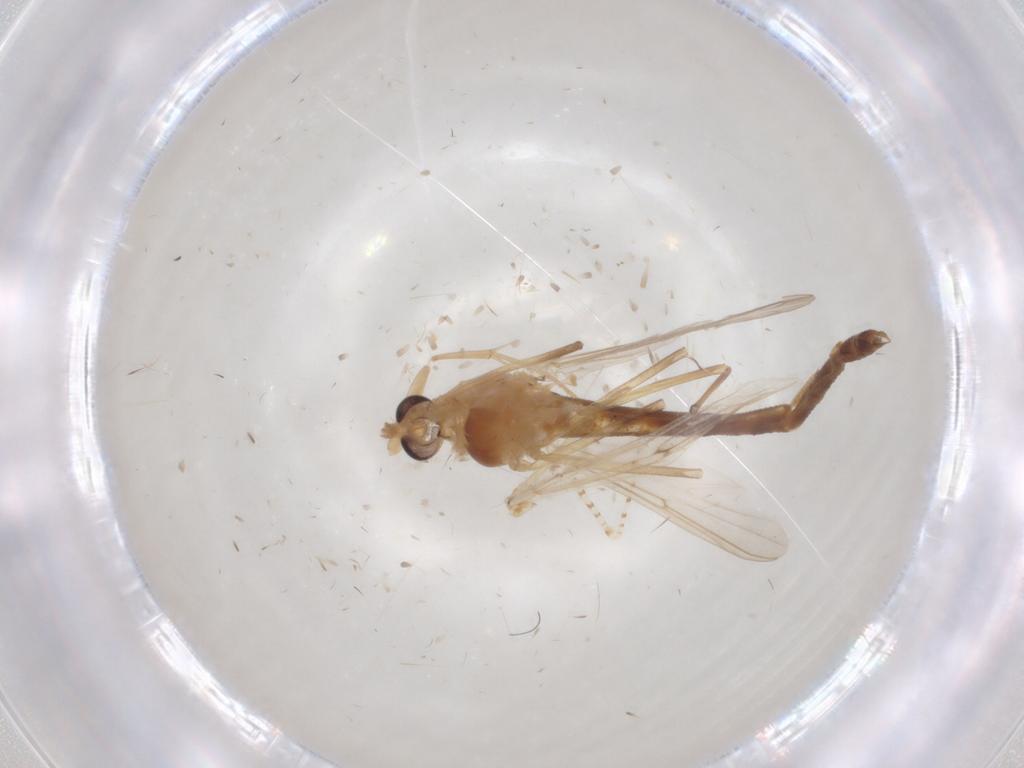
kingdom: Animalia
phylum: Arthropoda
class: Insecta
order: Diptera
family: Chironomidae
